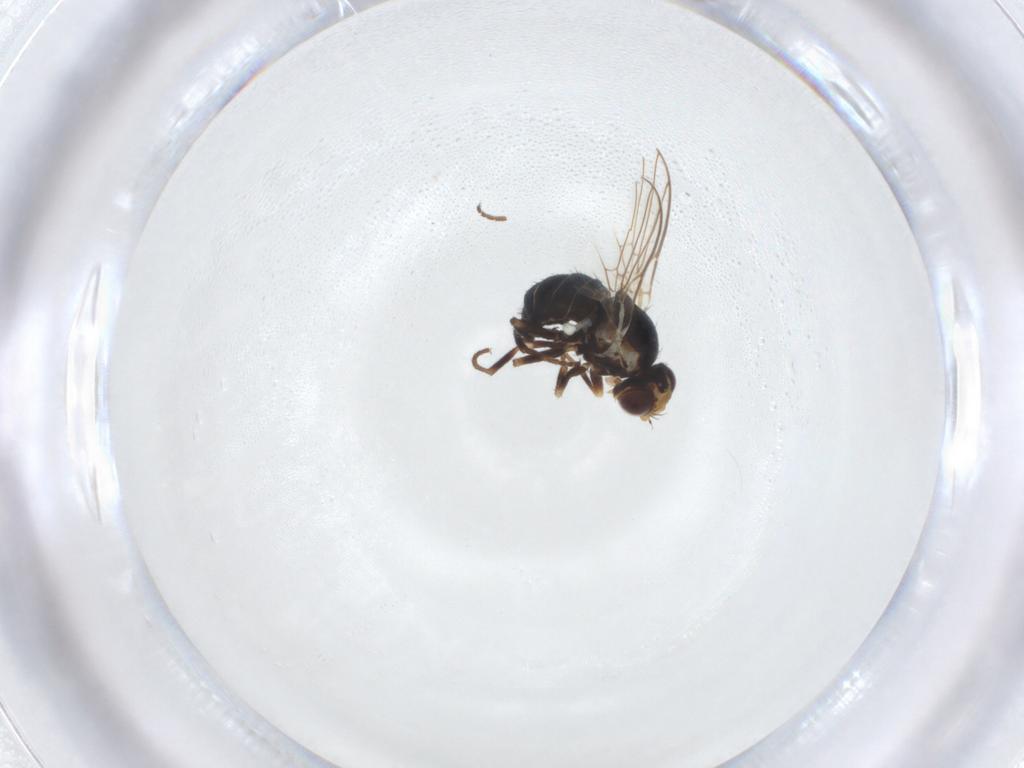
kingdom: Animalia
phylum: Arthropoda
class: Insecta
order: Diptera
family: Agromyzidae
